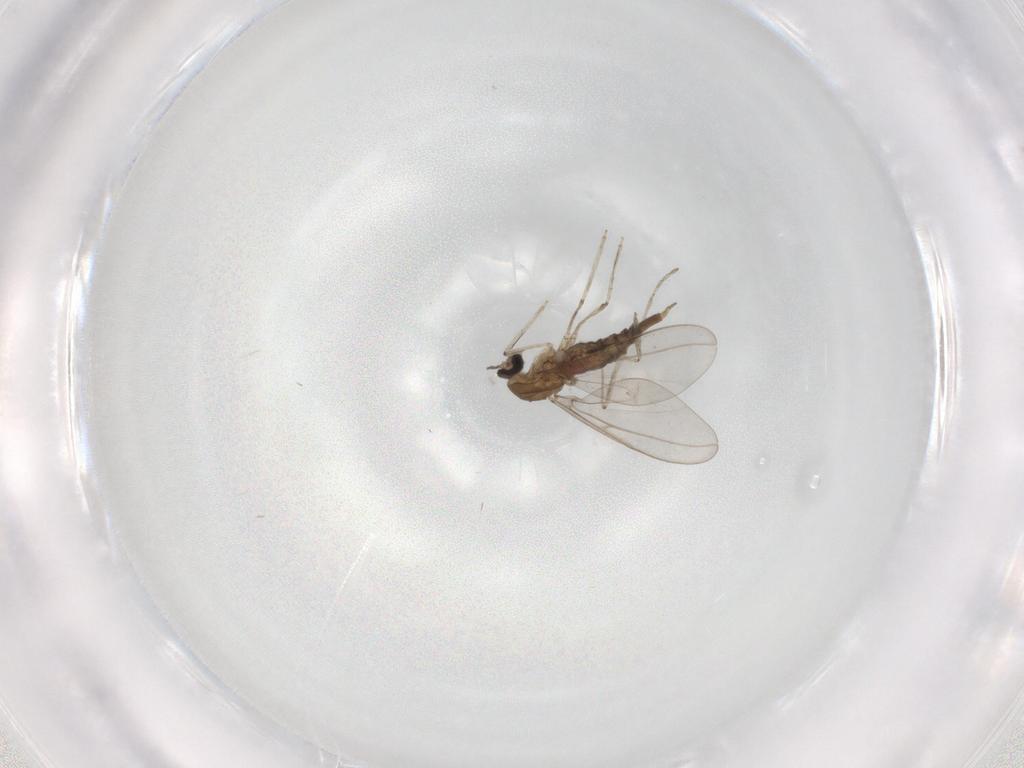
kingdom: Animalia
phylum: Arthropoda
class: Insecta
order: Diptera
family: Cecidomyiidae
